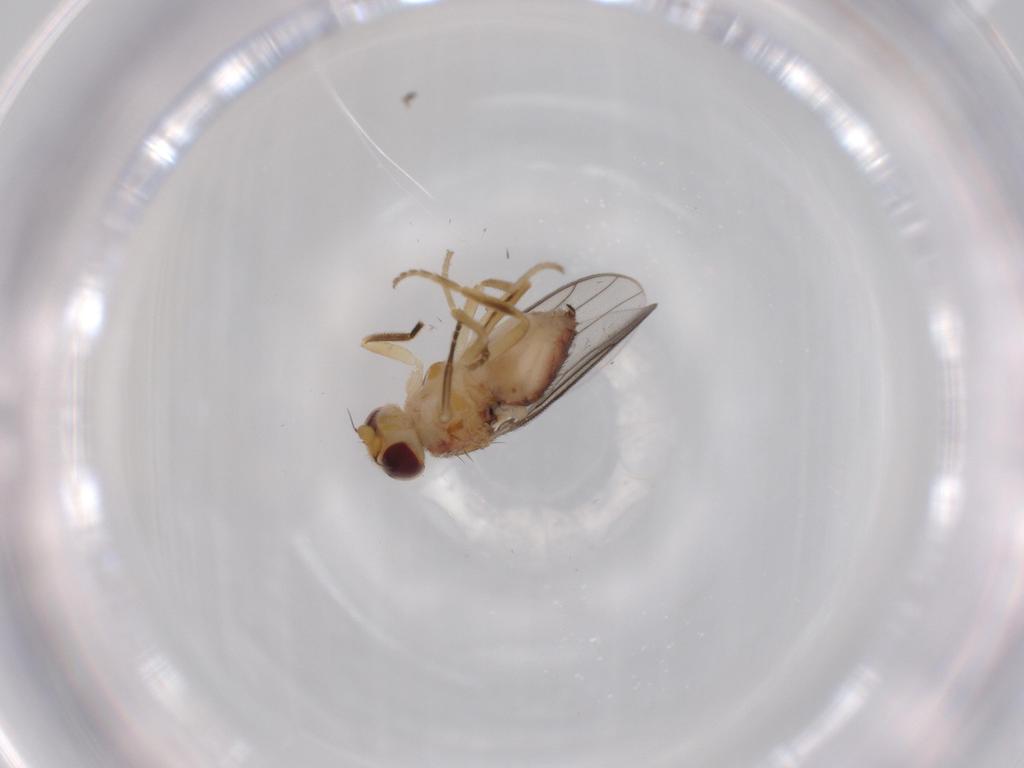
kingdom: Animalia
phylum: Arthropoda
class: Insecta
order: Diptera
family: Chloropidae
